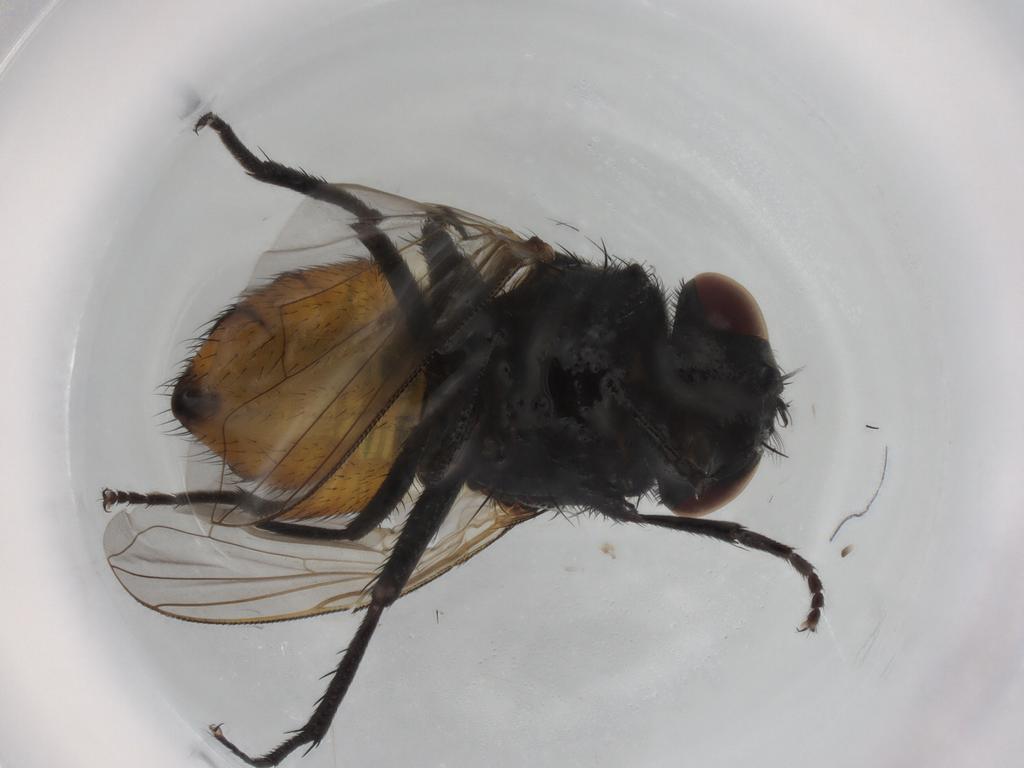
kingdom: Animalia
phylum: Arthropoda
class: Insecta
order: Diptera
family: Muscidae
